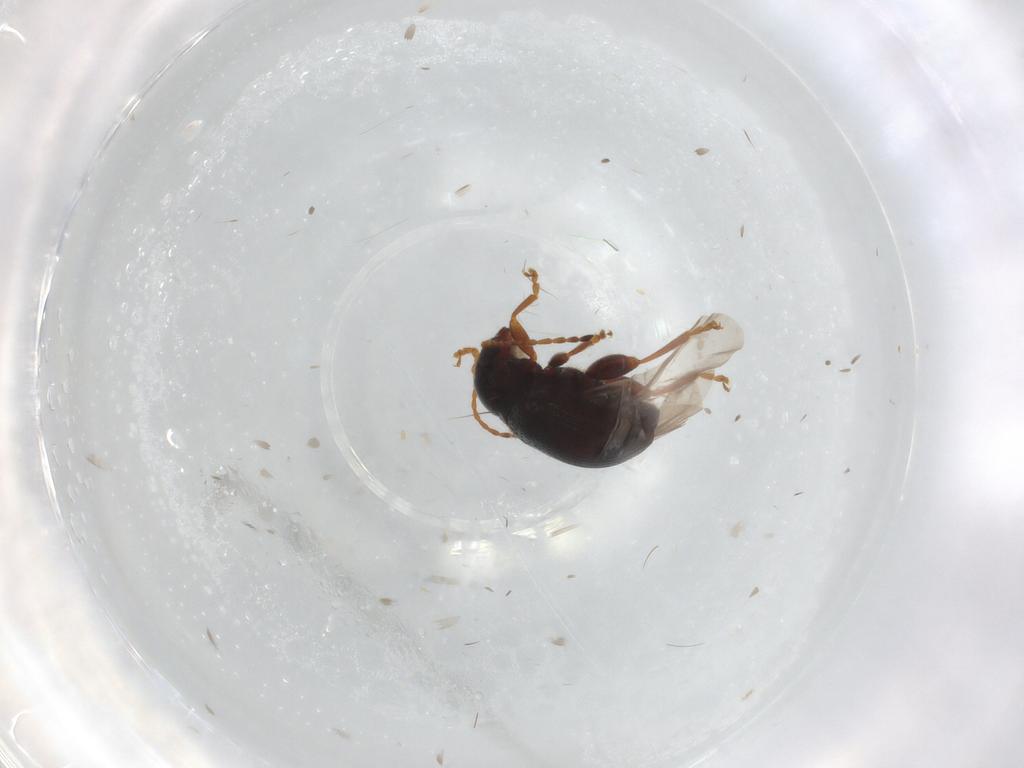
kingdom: Animalia
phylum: Arthropoda
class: Insecta
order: Coleoptera
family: Chrysomelidae
